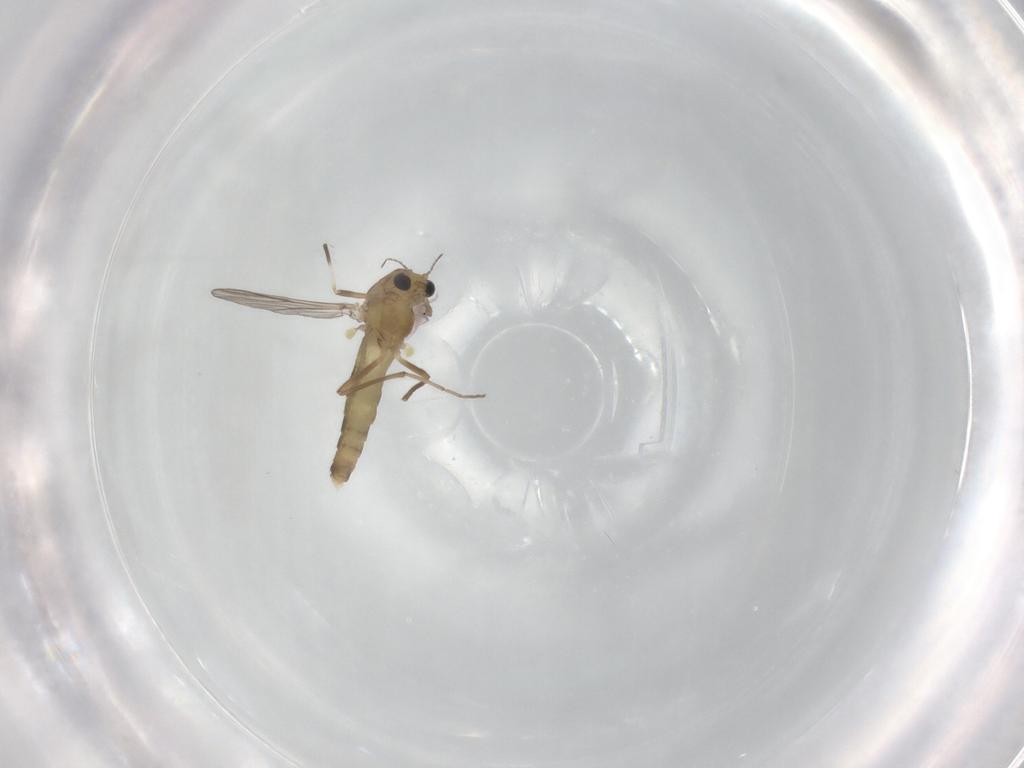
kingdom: Animalia
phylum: Arthropoda
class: Insecta
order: Diptera
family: Chironomidae
